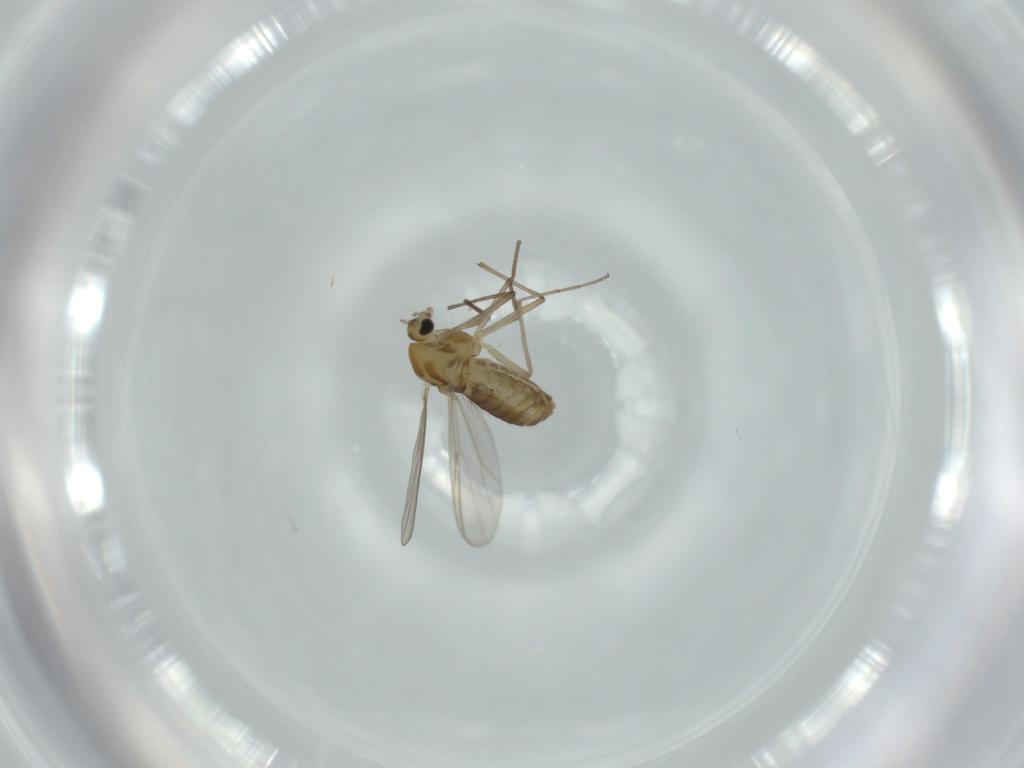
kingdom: Animalia
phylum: Arthropoda
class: Insecta
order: Diptera
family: Chironomidae
